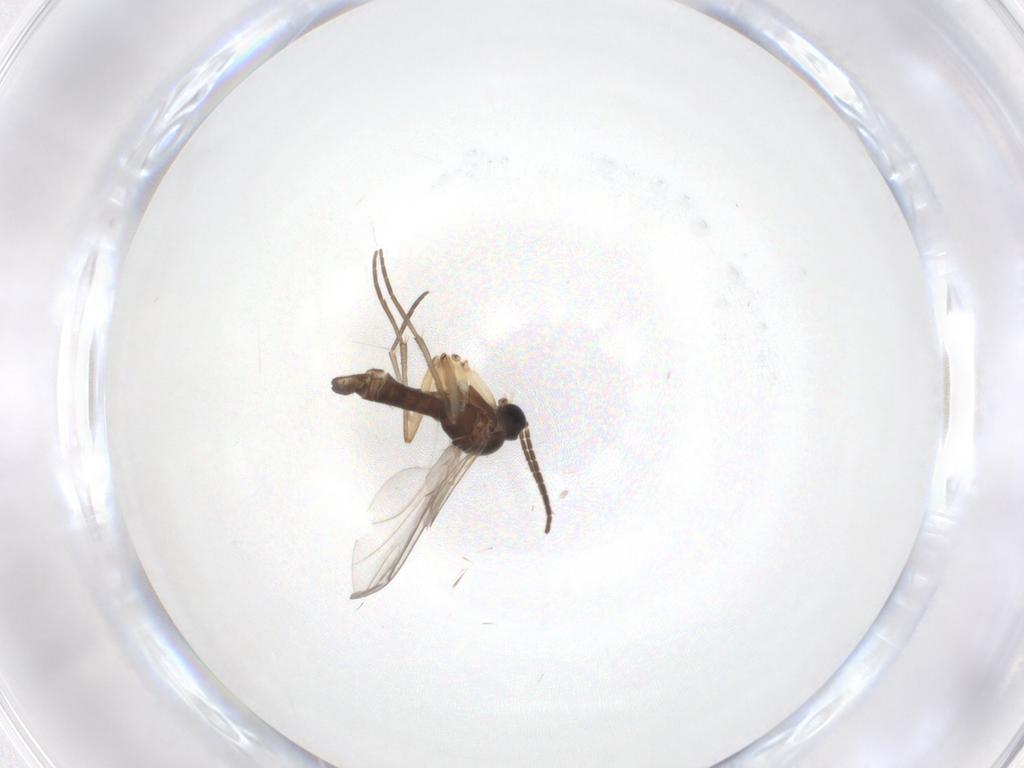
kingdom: Animalia
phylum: Arthropoda
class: Insecta
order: Diptera
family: Sciaridae
